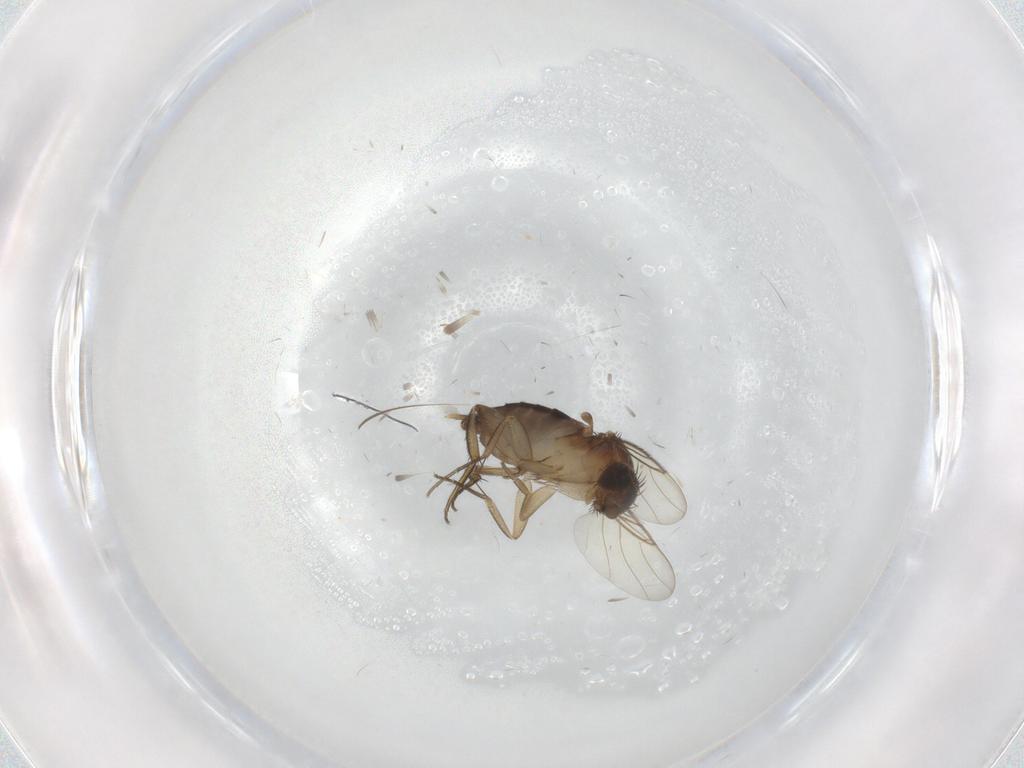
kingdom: Animalia
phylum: Arthropoda
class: Insecta
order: Diptera
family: Phoridae
